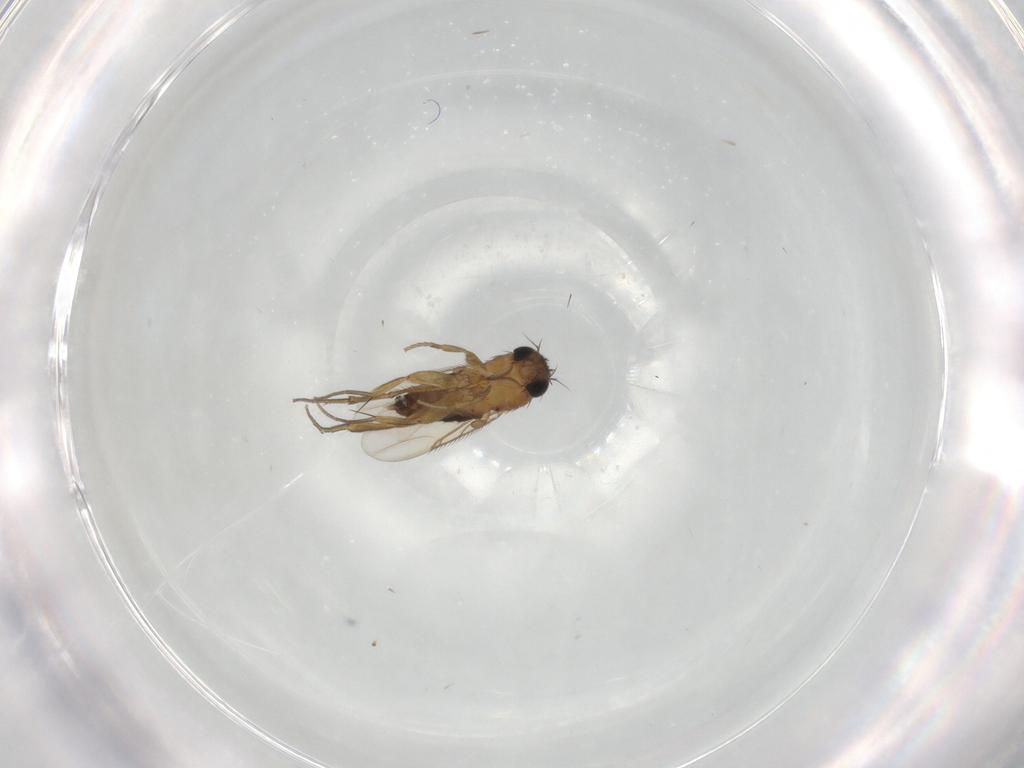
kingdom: Animalia
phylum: Arthropoda
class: Insecta
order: Diptera
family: Phoridae
